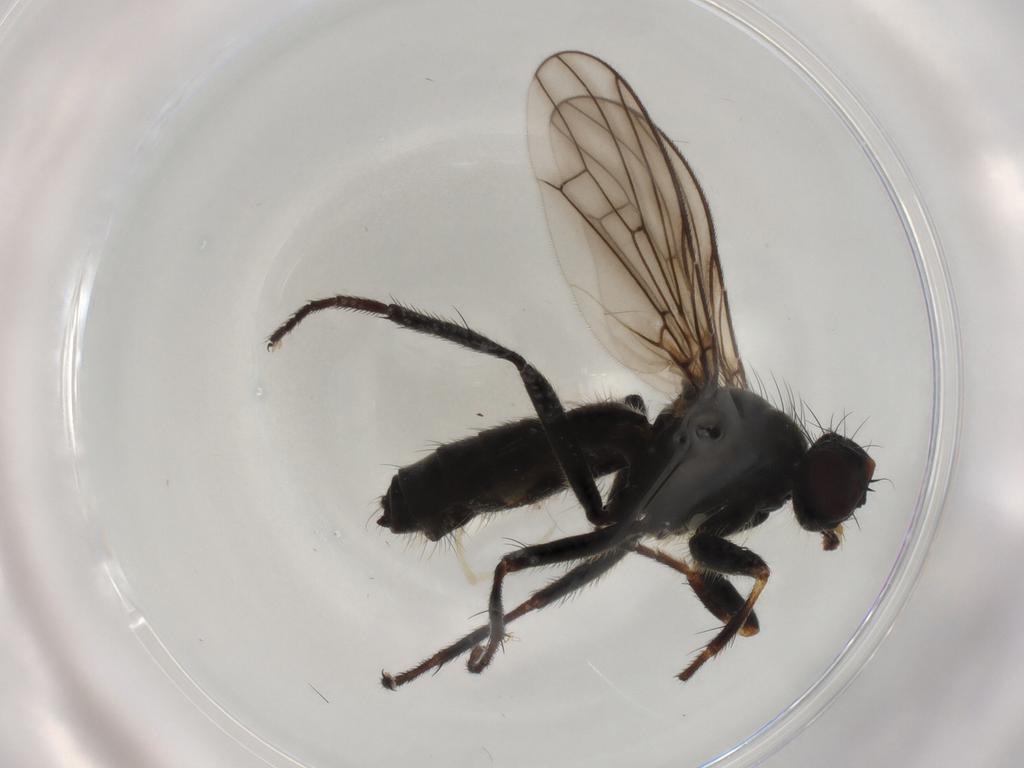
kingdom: Animalia
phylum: Arthropoda
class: Insecta
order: Diptera
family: Scathophagidae
